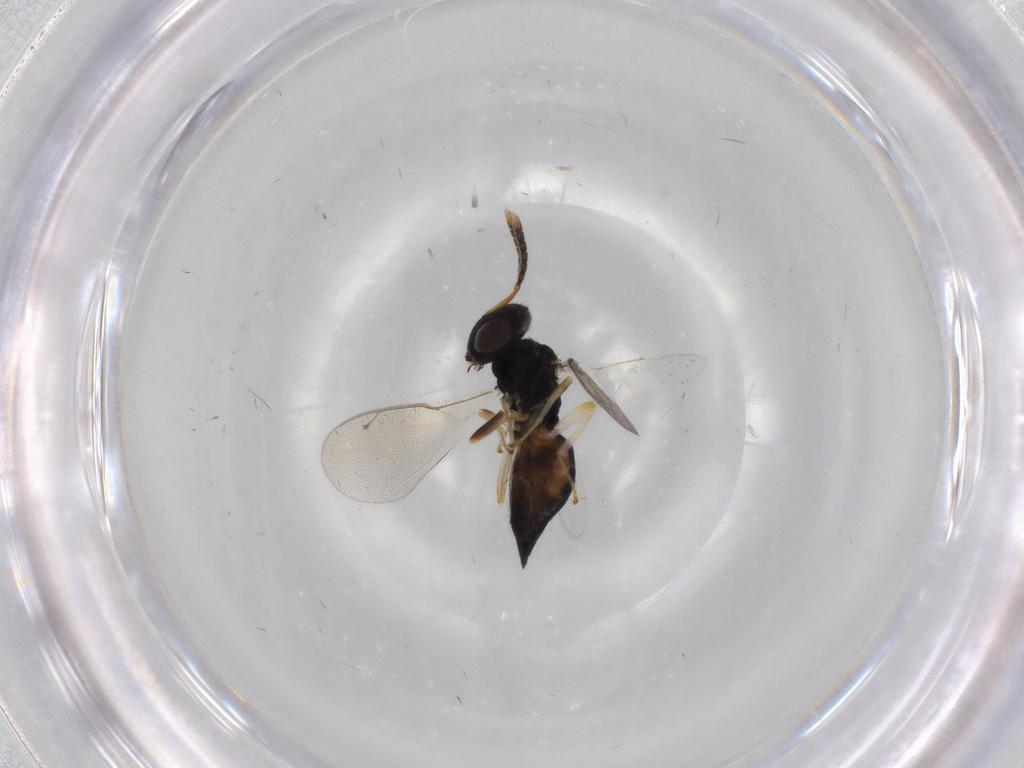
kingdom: Animalia
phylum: Arthropoda
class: Insecta
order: Hymenoptera
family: Pteromalidae
